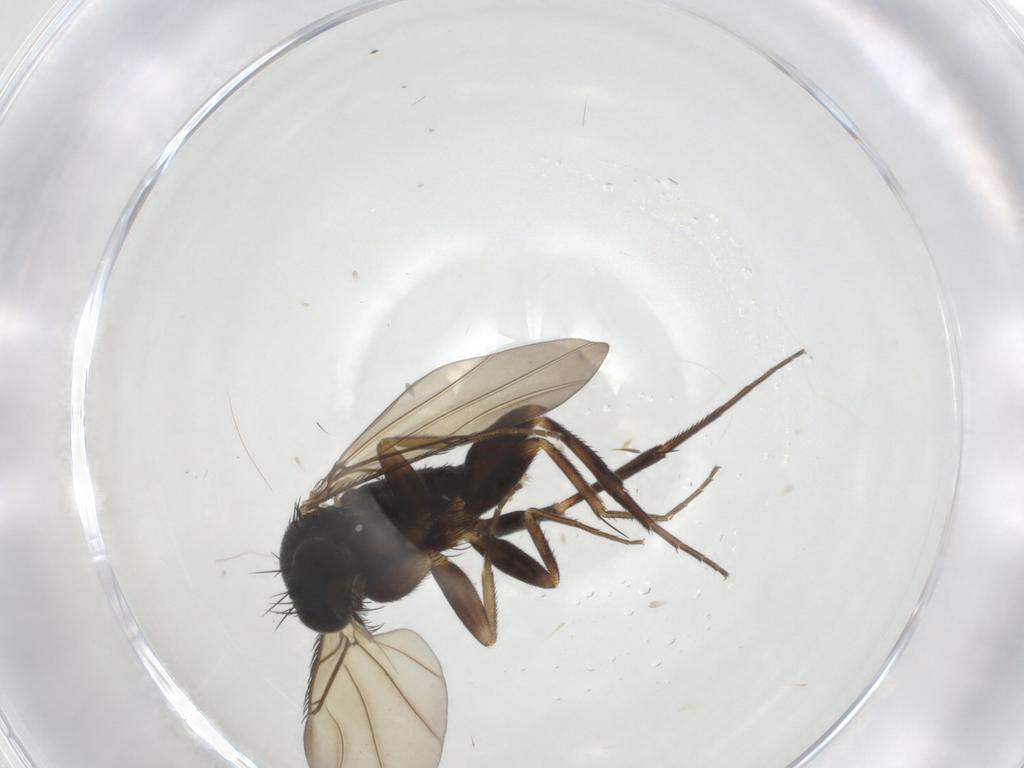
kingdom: Animalia
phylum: Arthropoda
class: Insecta
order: Diptera
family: Phoridae
